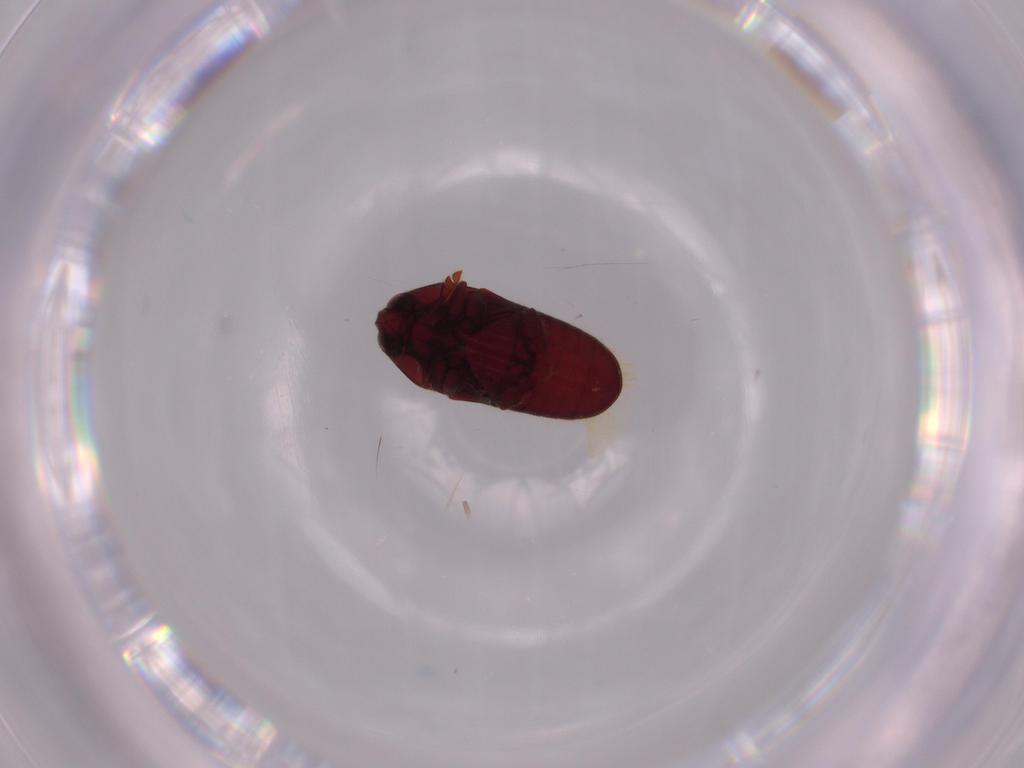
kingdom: Animalia
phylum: Arthropoda
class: Insecta
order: Coleoptera
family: Throscidae
